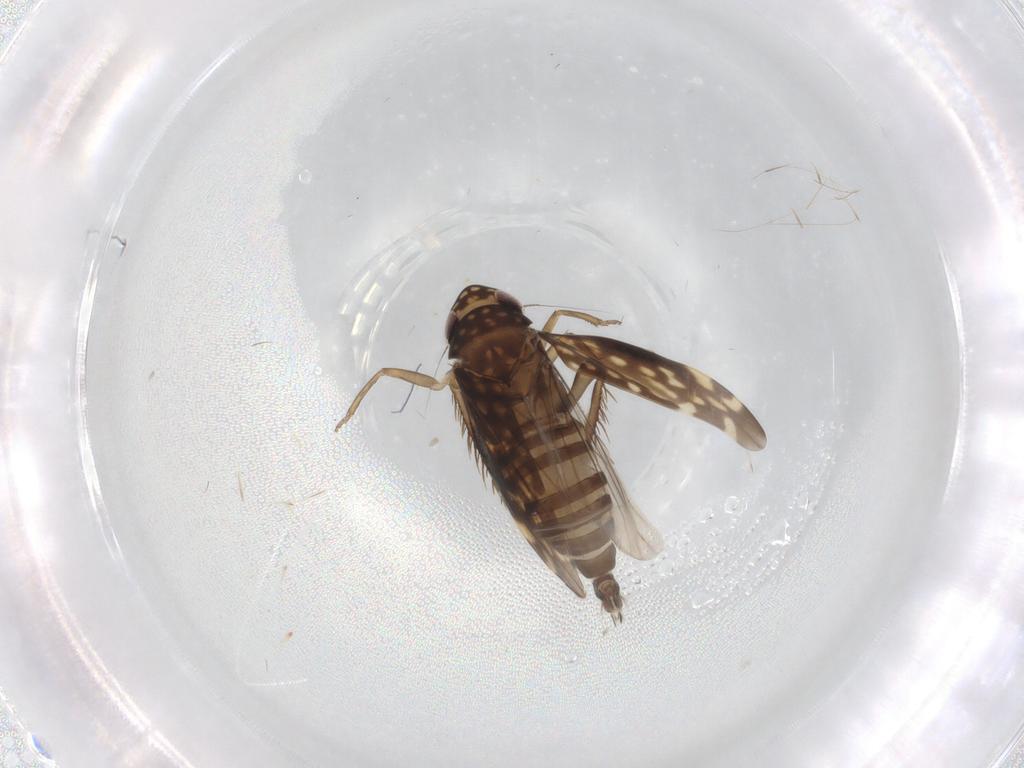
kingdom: Animalia
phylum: Arthropoda
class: Insecta
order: Hemiptera
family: Cicadellidae
